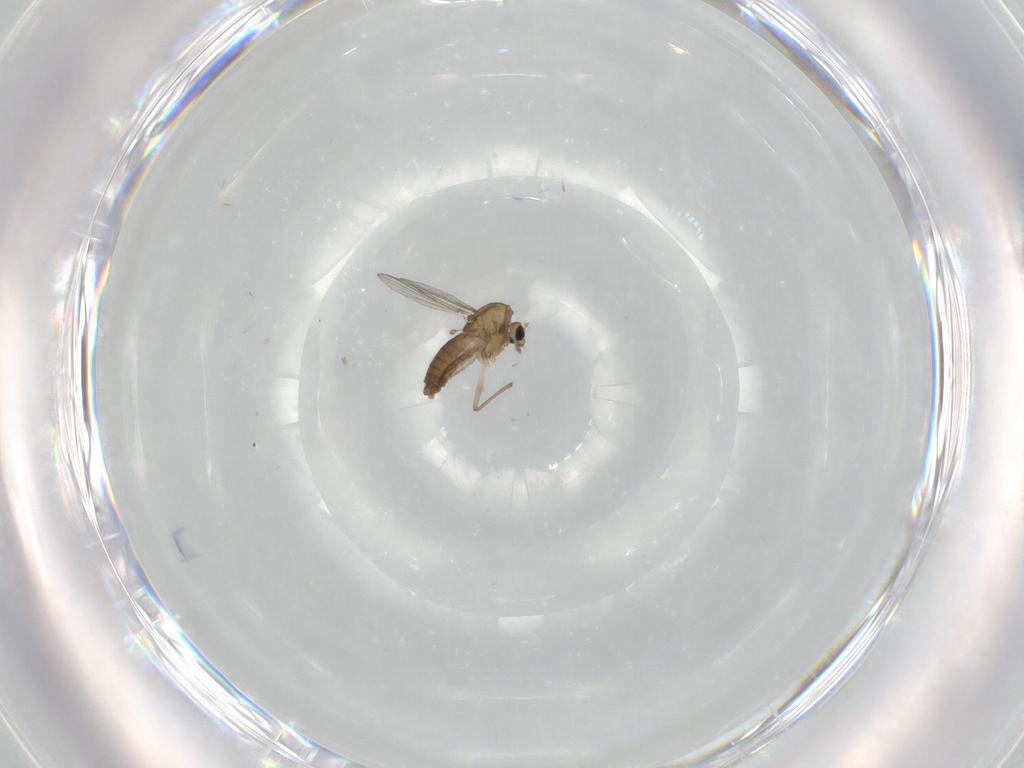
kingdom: Animalia
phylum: Arthropoda
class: Insecta
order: Diptera
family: Chironomidae
